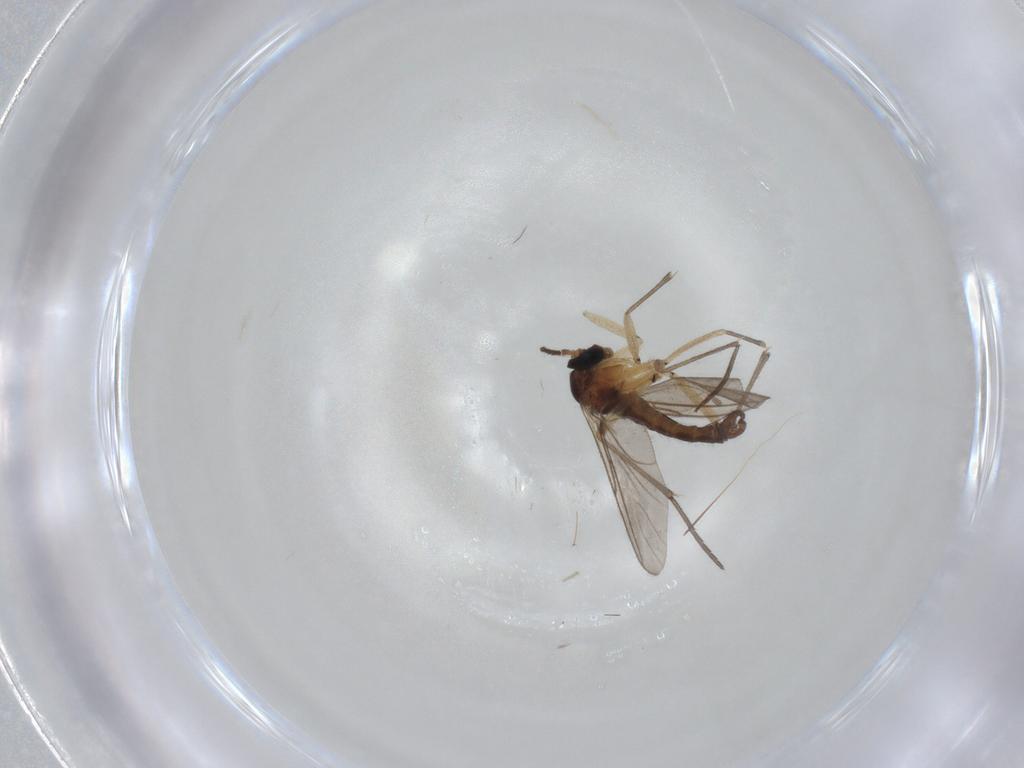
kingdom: Animalia
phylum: Arthropoda
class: Insecta
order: Diptera
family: Sciaridae
